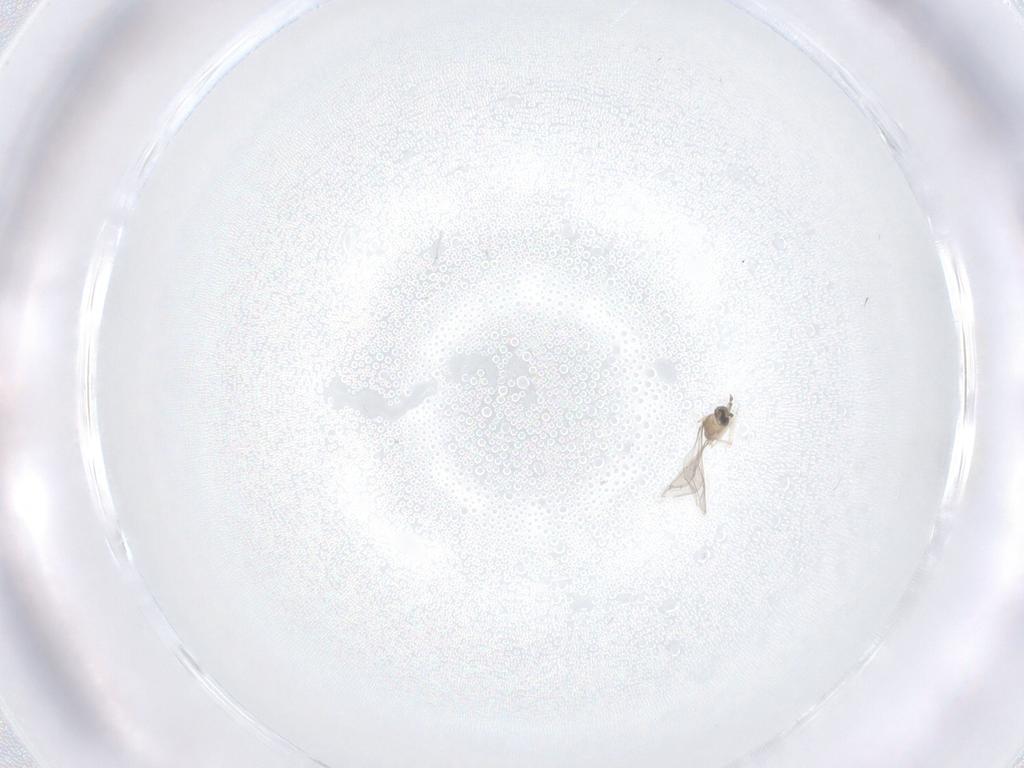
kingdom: Animalia
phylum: Arthropoda
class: Insecta
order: Diptera
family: Cecidomyiidae
